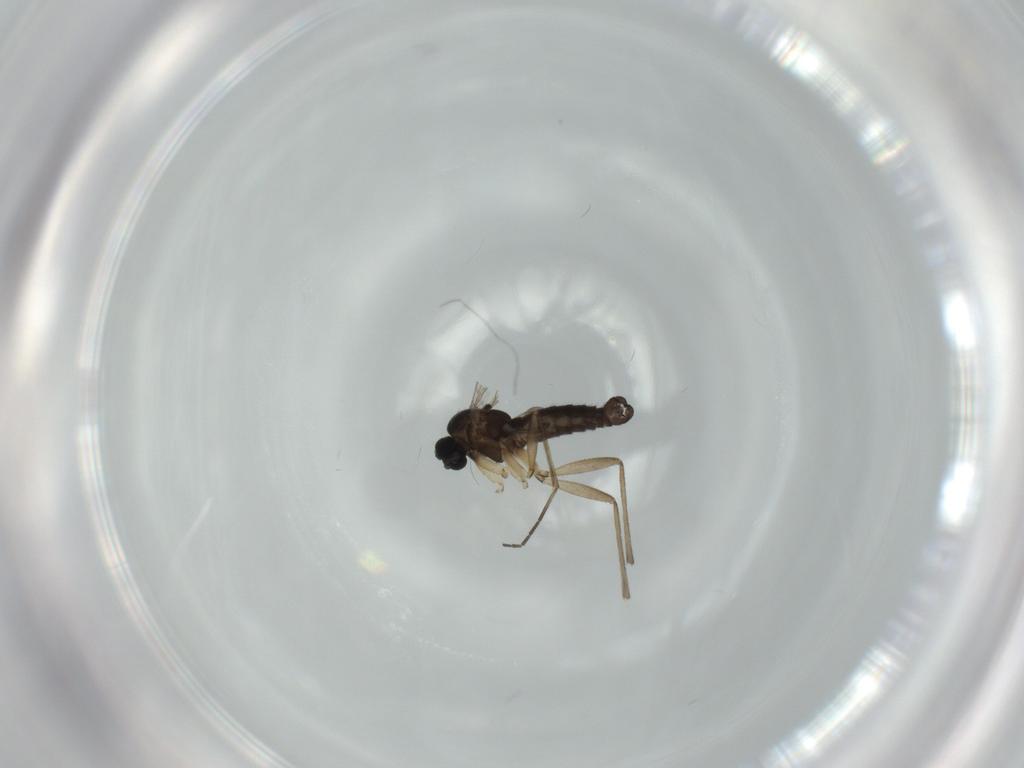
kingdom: Animalia
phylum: Arthropoda
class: Insecta
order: Diptera
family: Sciaridae
